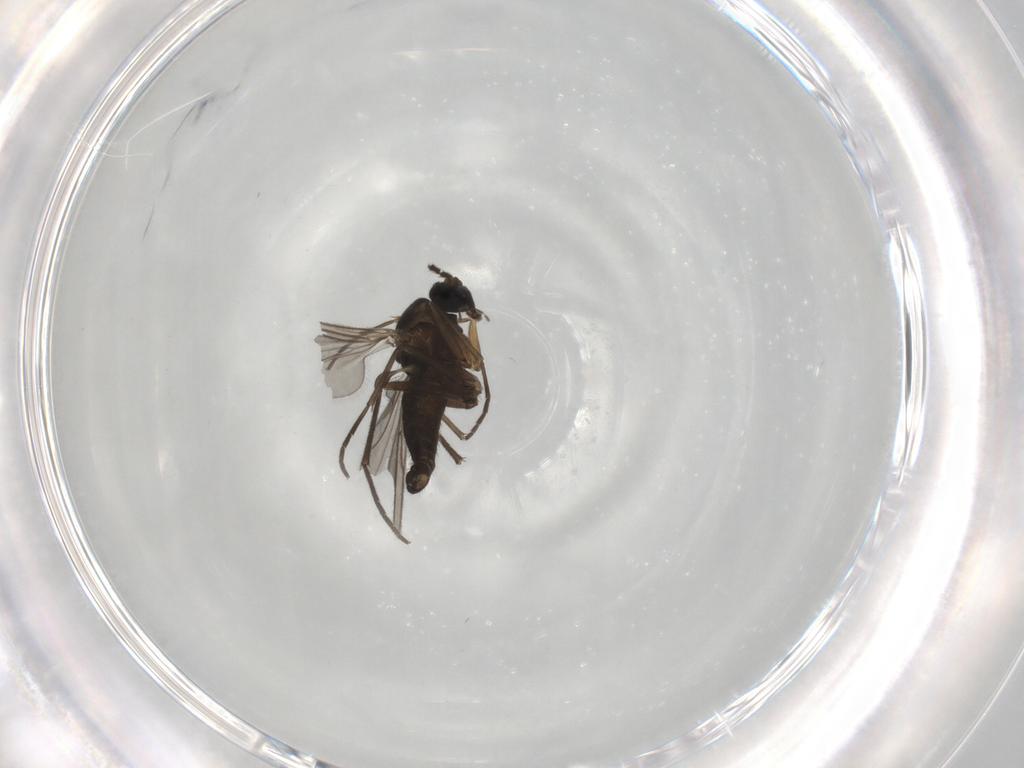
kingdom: Animalia
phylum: Arthropoda
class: Insecta
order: Diptera
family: Sciaridae
